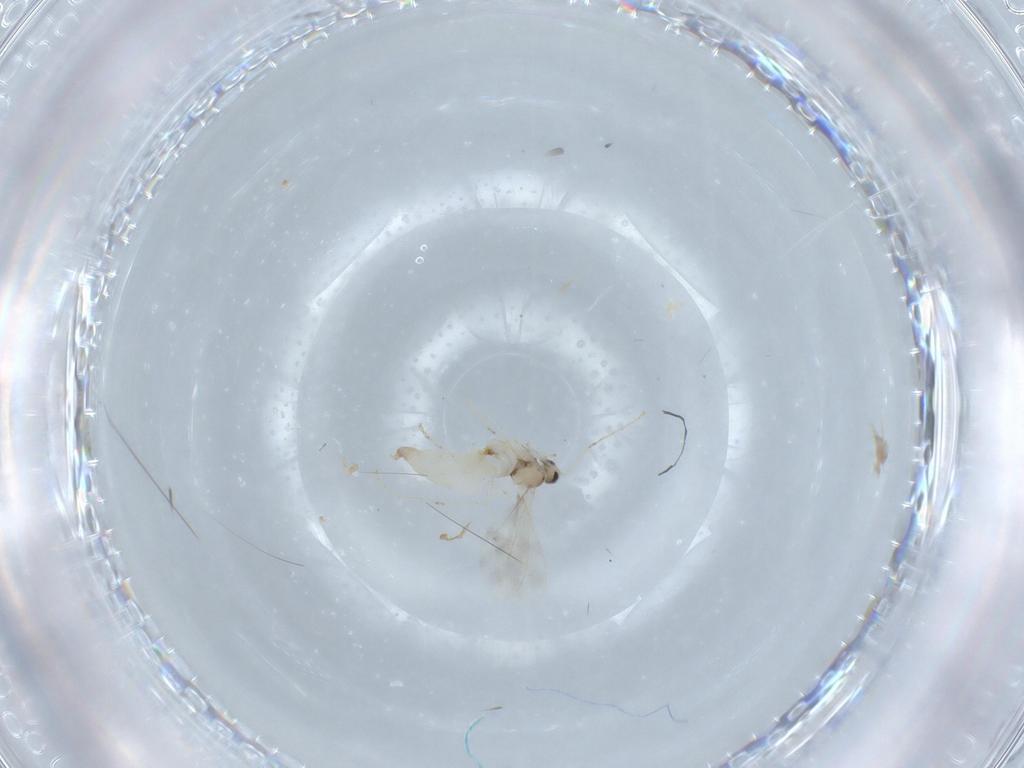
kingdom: Animalia
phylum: Arthropoda
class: Insecta
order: Diptera
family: Cecidomyiidae
